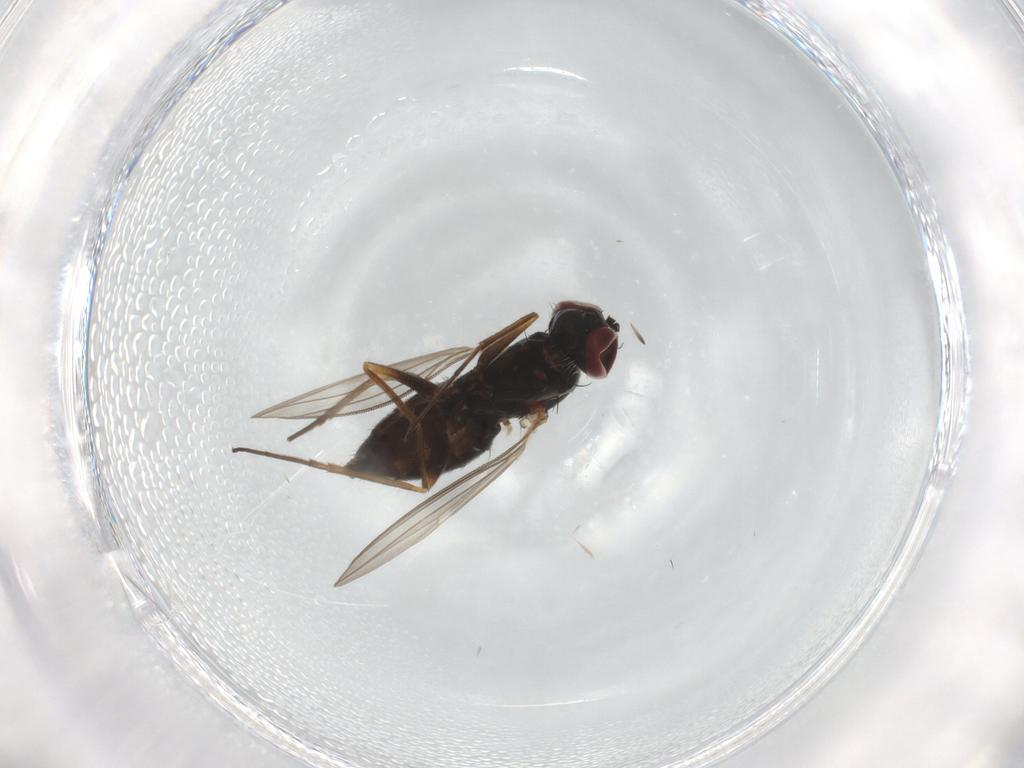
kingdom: Animalia
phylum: Arthropoda
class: Insecta
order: Diptera
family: Dolichopodidae
